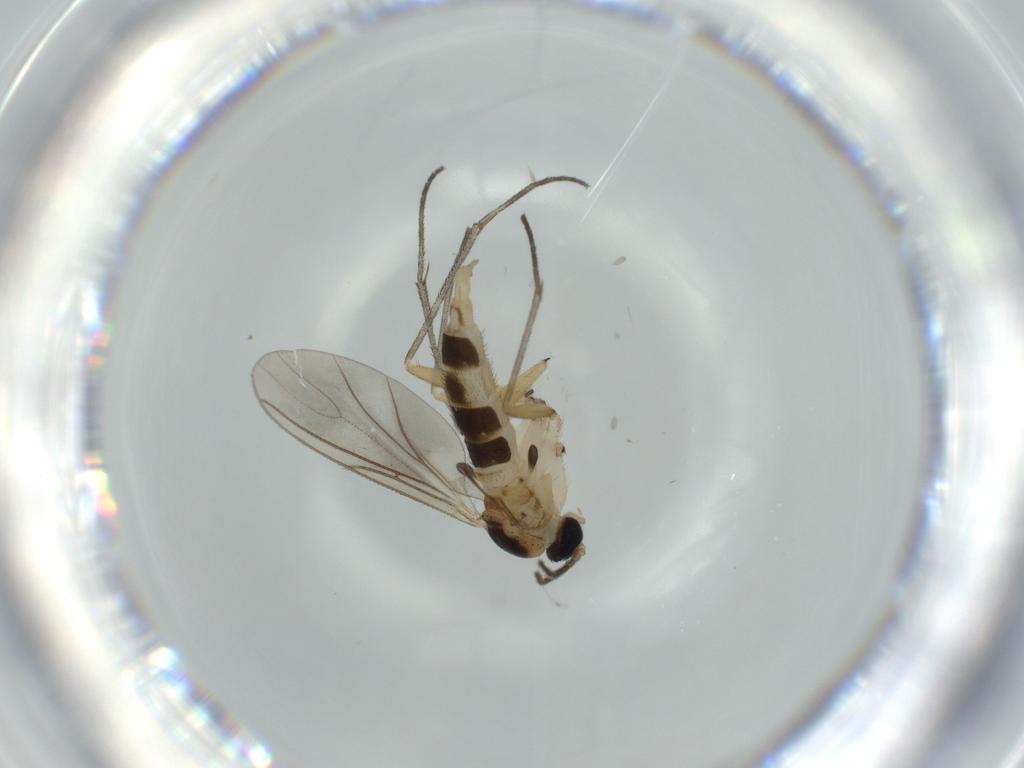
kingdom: Animalia
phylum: Arthropoda
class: Insecta
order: Diptera
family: Sciaridae
